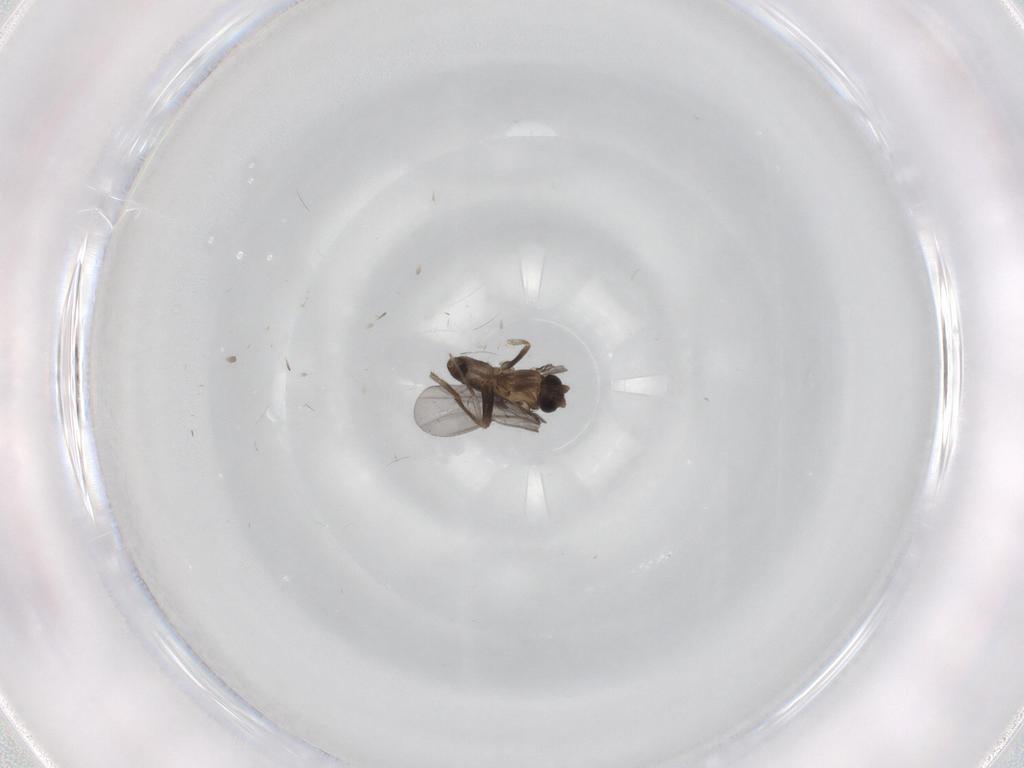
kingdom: Animalia
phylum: Arthropoda
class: Insecta
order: Diptera
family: Phoridae
